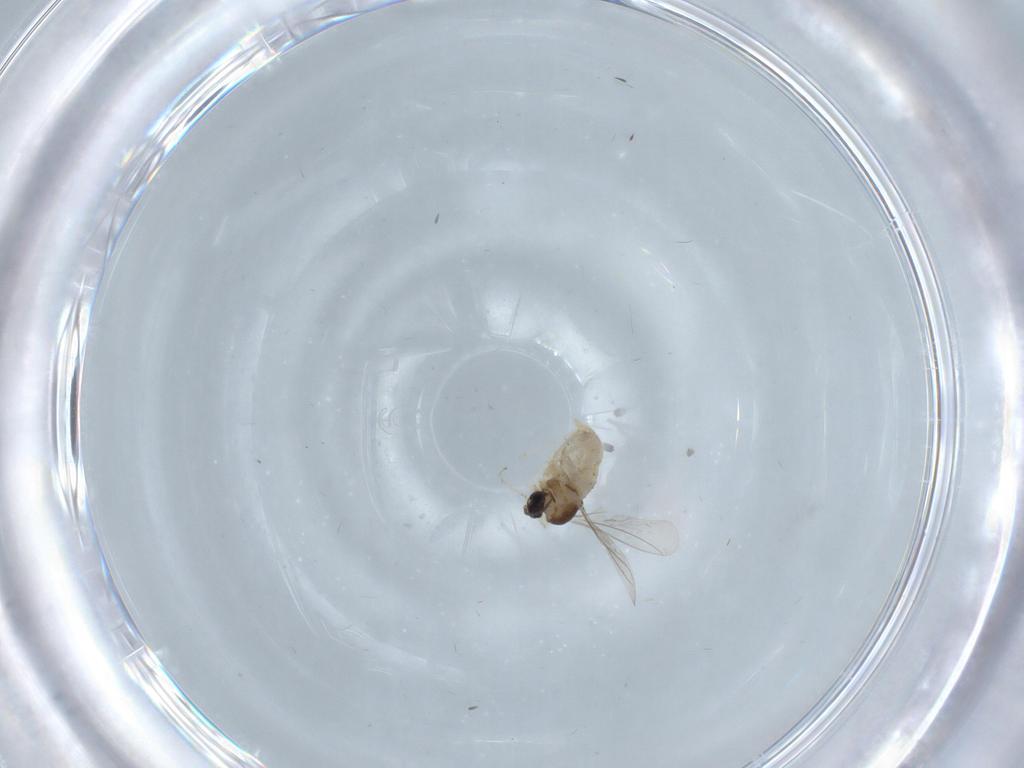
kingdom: Animalia
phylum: Arthropoda
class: Insecta
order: Diptera
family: Cecidomyiidae
